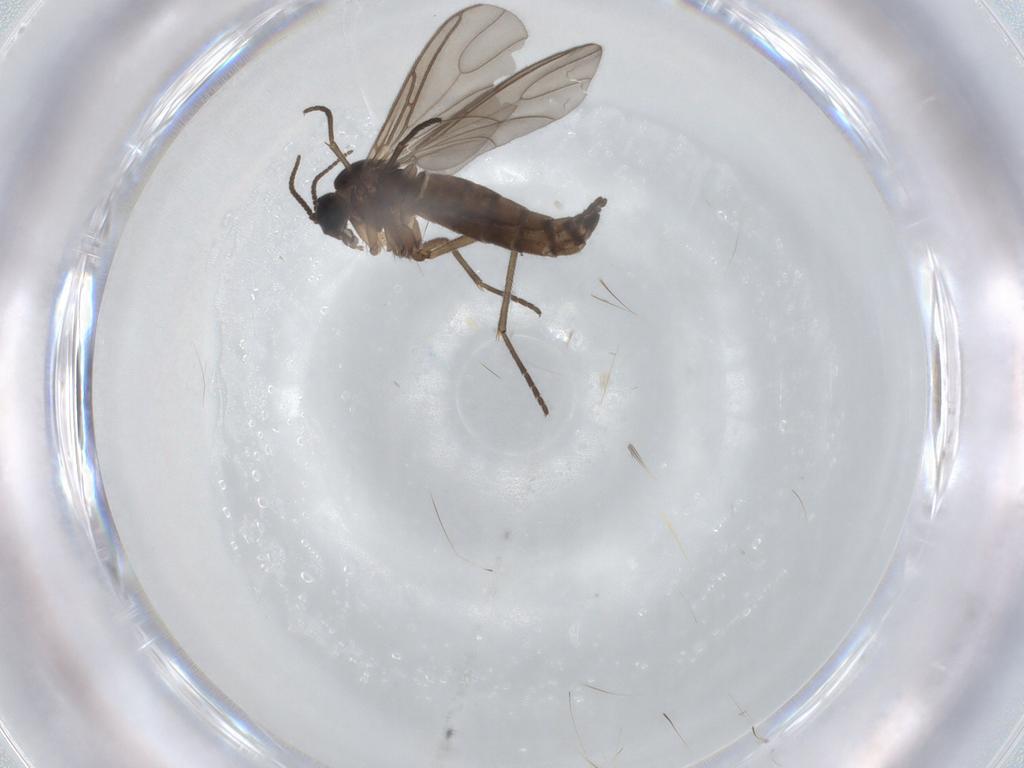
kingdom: Animalia
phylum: Arthropoda
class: Insecta
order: Diptera
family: Sciaridae
